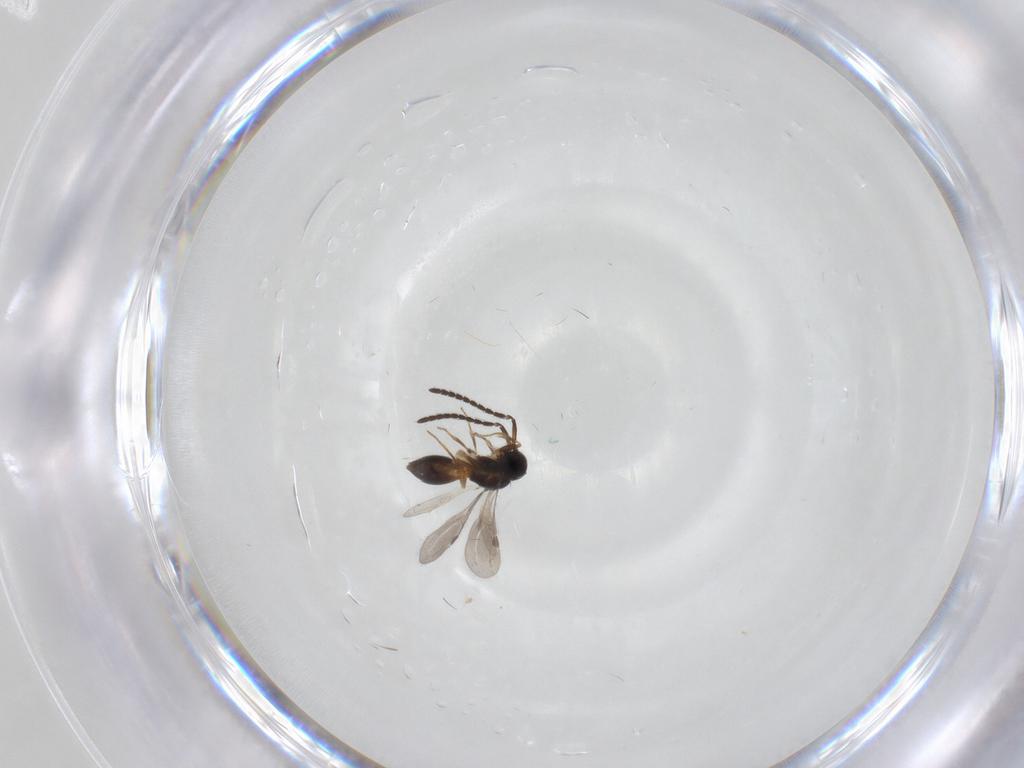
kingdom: Animalia
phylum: Arthropoda
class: Insecta
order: Hymenoptera
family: Megaspilidae
